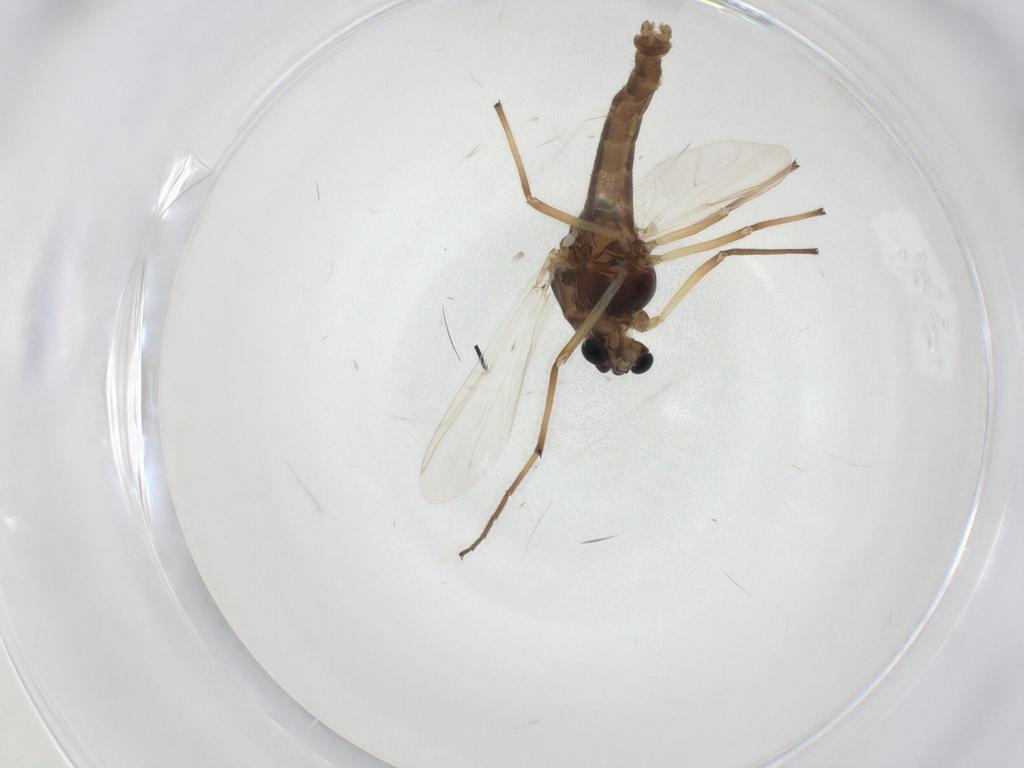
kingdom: Animalia
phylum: Arthropoda
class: Insecta
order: Diptera
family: Chironomidae
